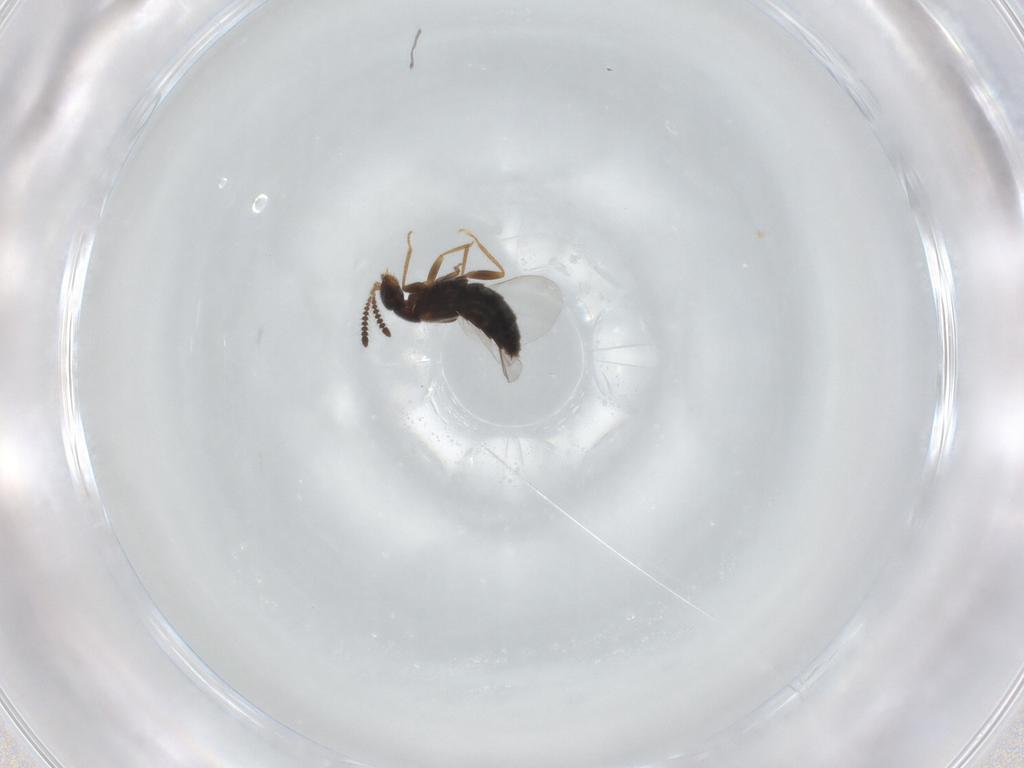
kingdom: Animalia
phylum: Arthropoda
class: Insecta
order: Coleoptera
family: Staphylinidae
